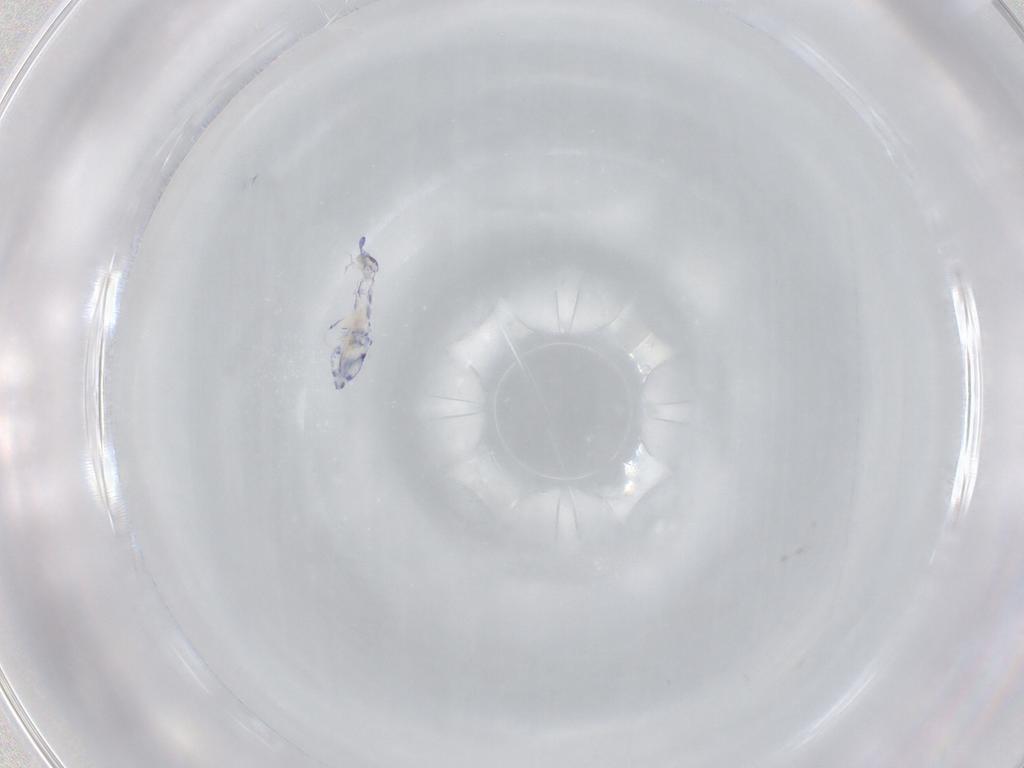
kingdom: Animalia
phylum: Arthropoda
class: Collembola
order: Entomobryomorpha
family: Entomobryidae
